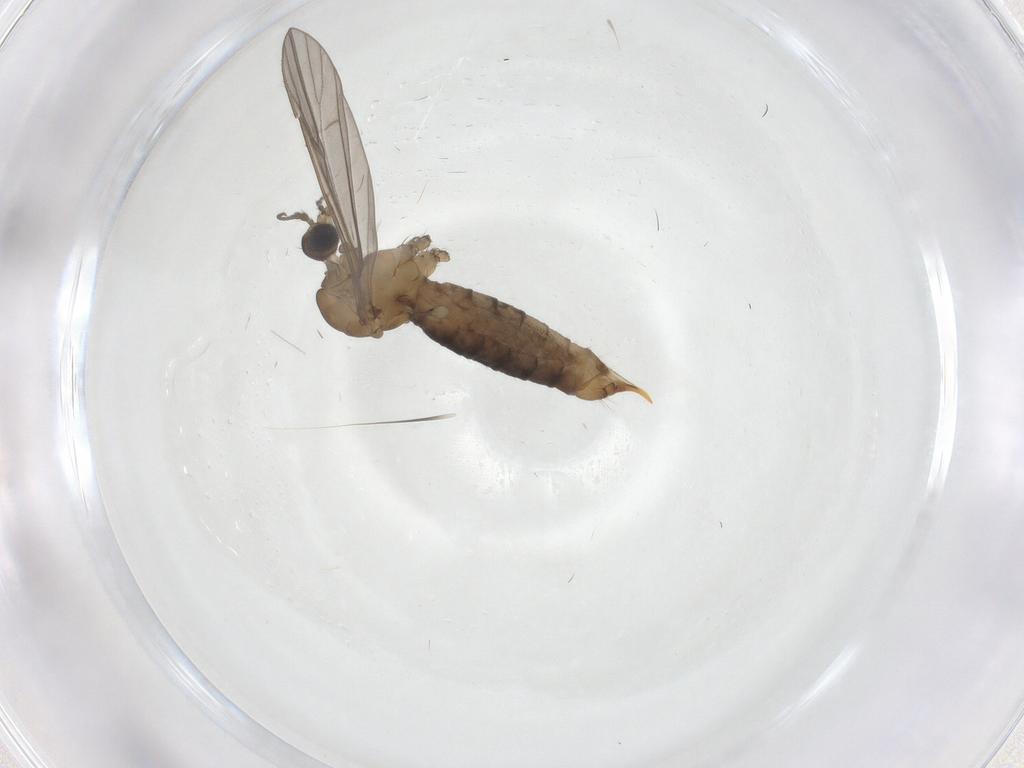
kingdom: Animalia
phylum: Arthropoda
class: Insecta
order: Diptera
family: Limoniidae
